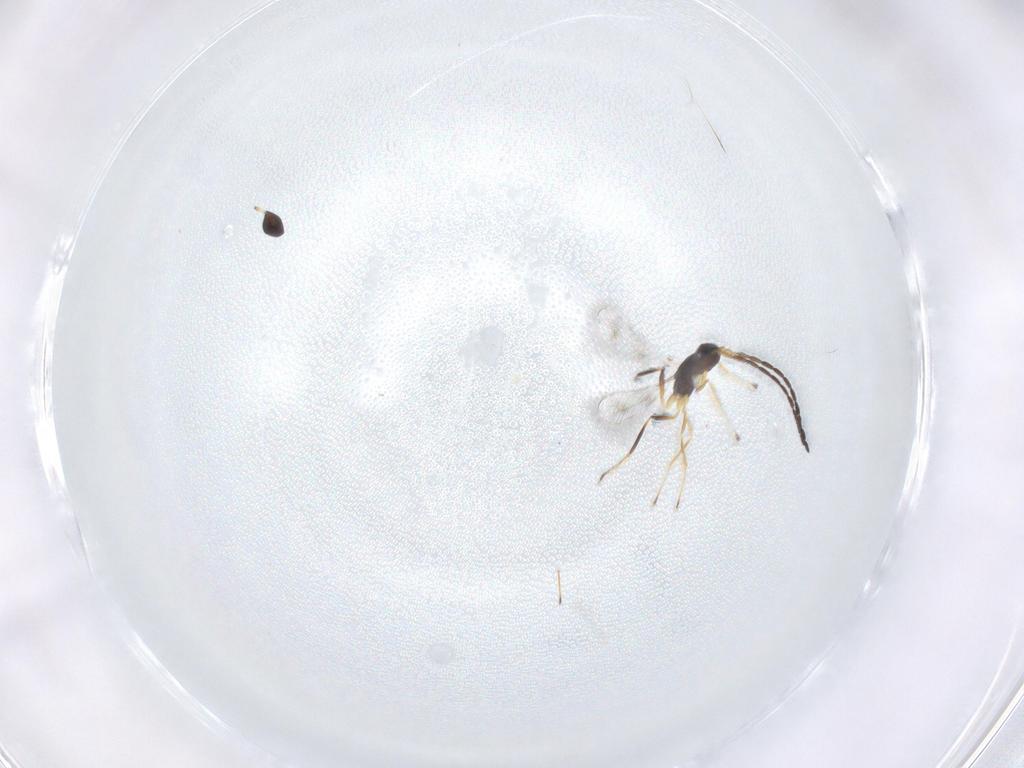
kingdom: Animalia
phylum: Arthropoda
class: Insecta
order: Hymenoptera
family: Mymaridae
